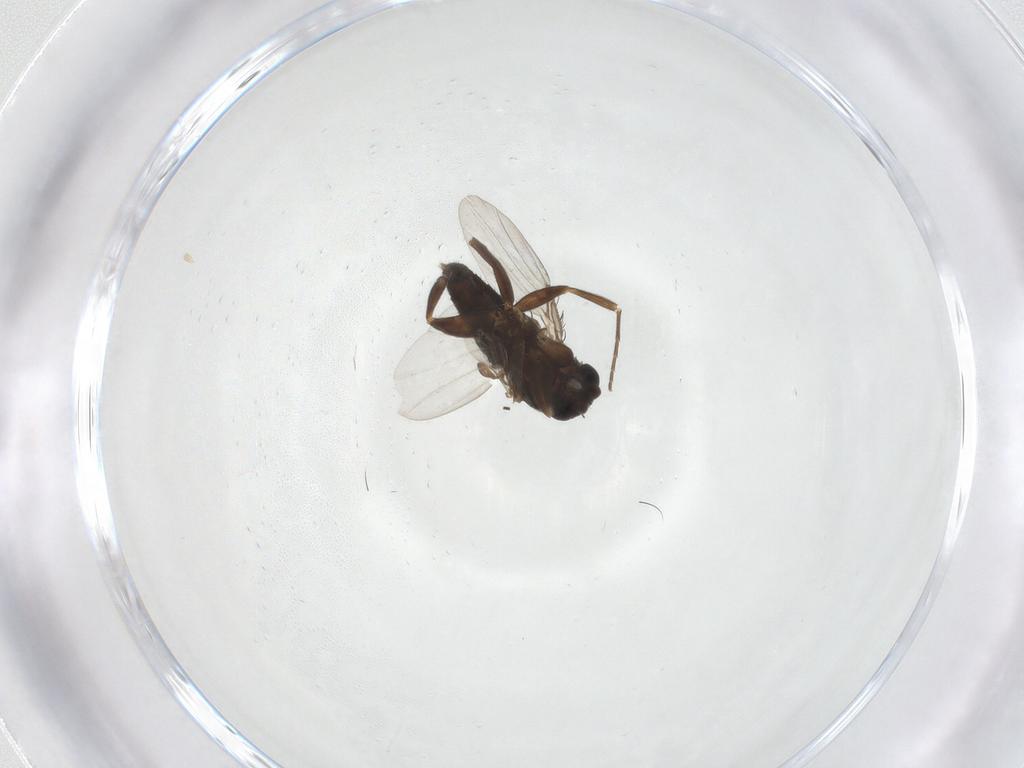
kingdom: Animalia
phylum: Arthropoda
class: Insecta
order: Diptera
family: Phoridae
